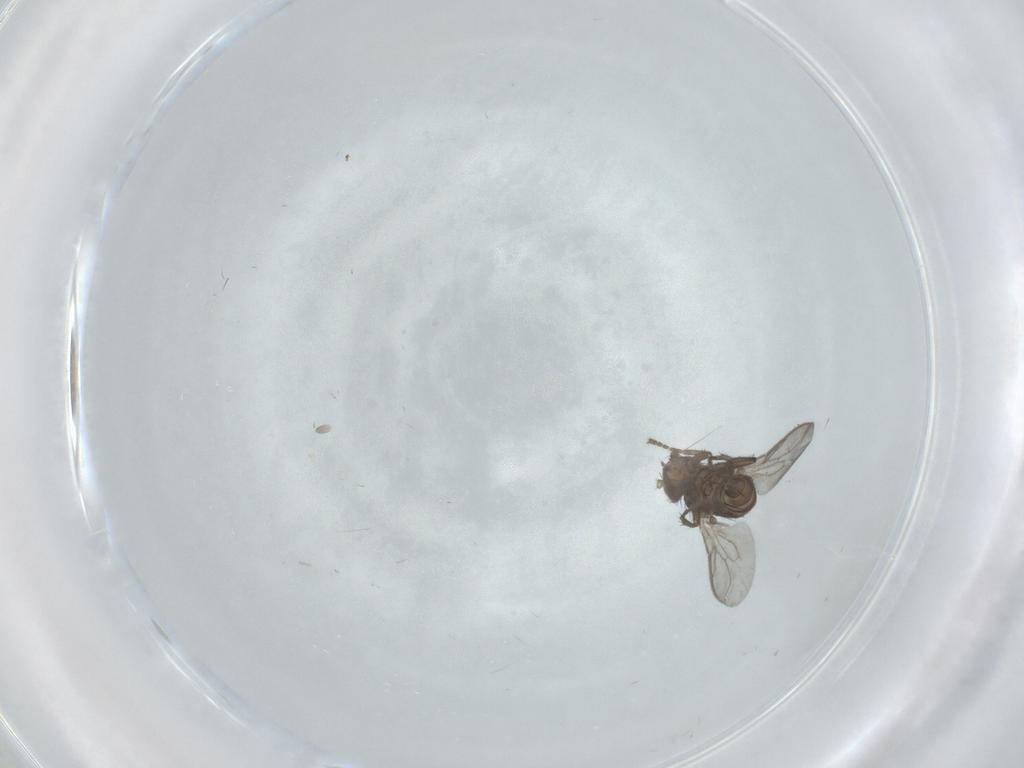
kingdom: Animalia
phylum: Arthropoda
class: Insecta
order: Diptera
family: Sphaeroceridae
